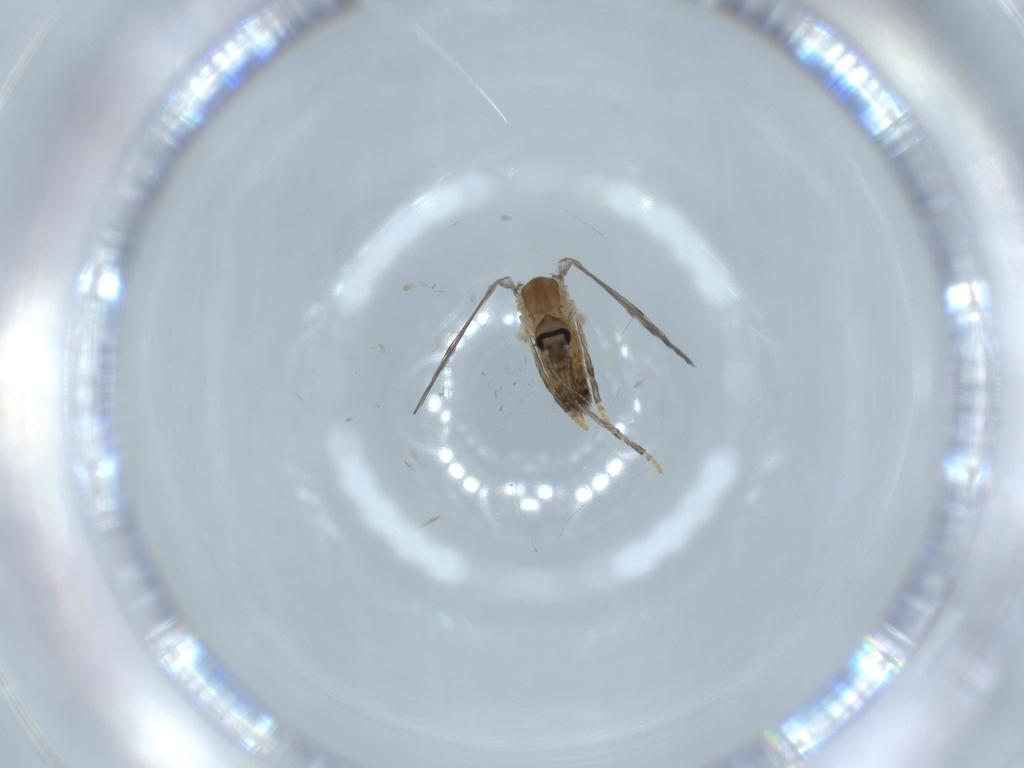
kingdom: Animalia
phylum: Arthropoda
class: Insecta
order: Diptera
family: Psychodidae
